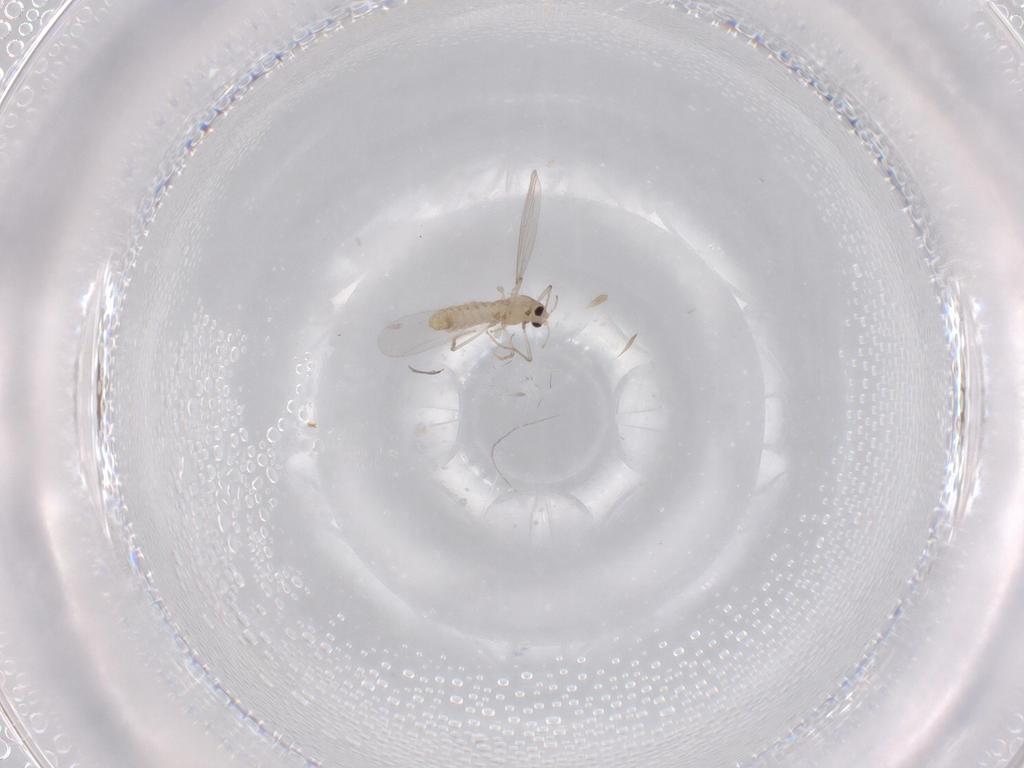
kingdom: Animalia
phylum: Arthropoda
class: Insecta
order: Diptera
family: Chironomidae
